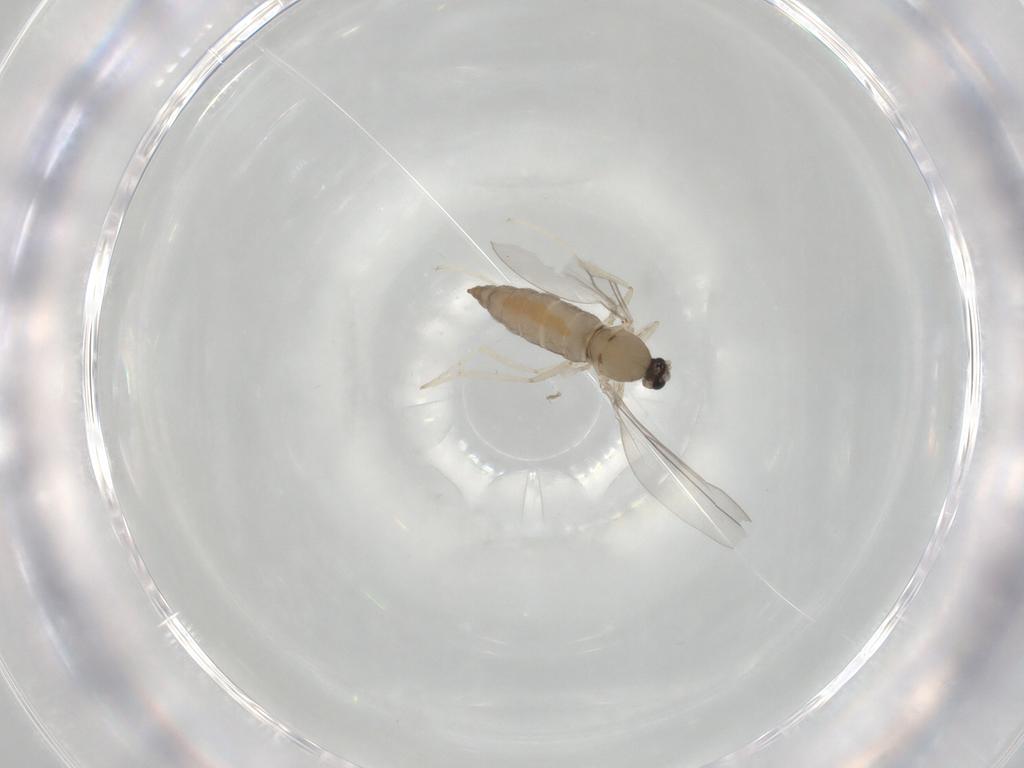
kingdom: Animalia
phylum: Arthropoda
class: Insecta
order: Diptera
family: Cecidomyiidae
